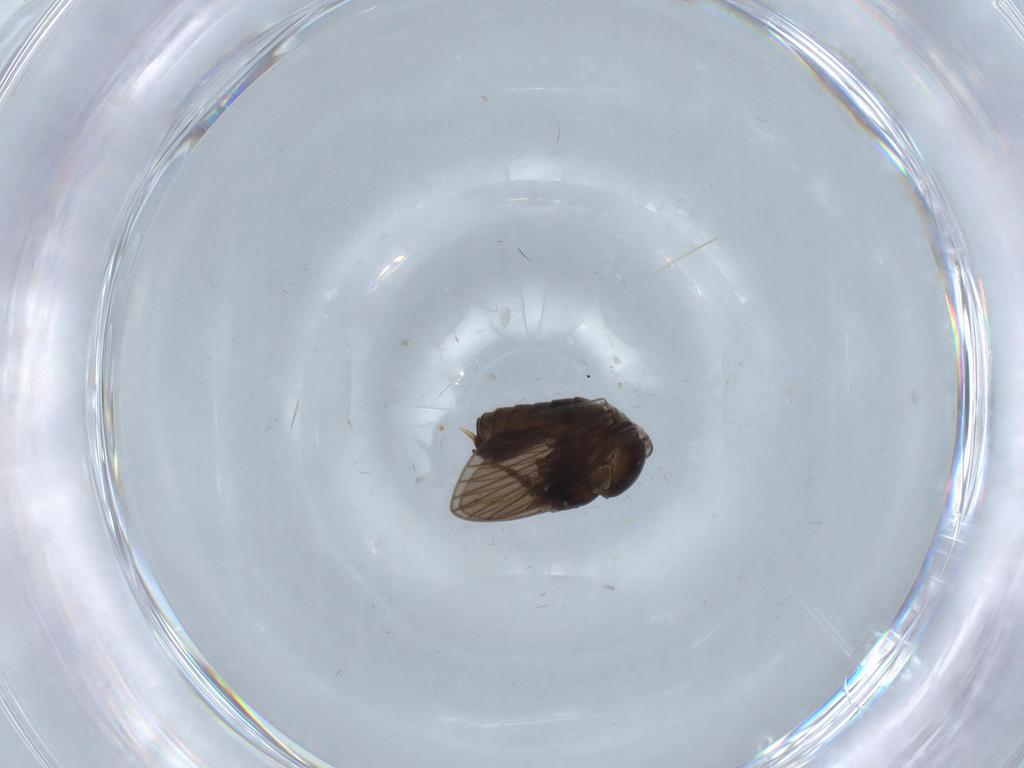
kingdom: Animalia
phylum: Arthropoda
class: Insecta
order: Diptera
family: Psychodidae
